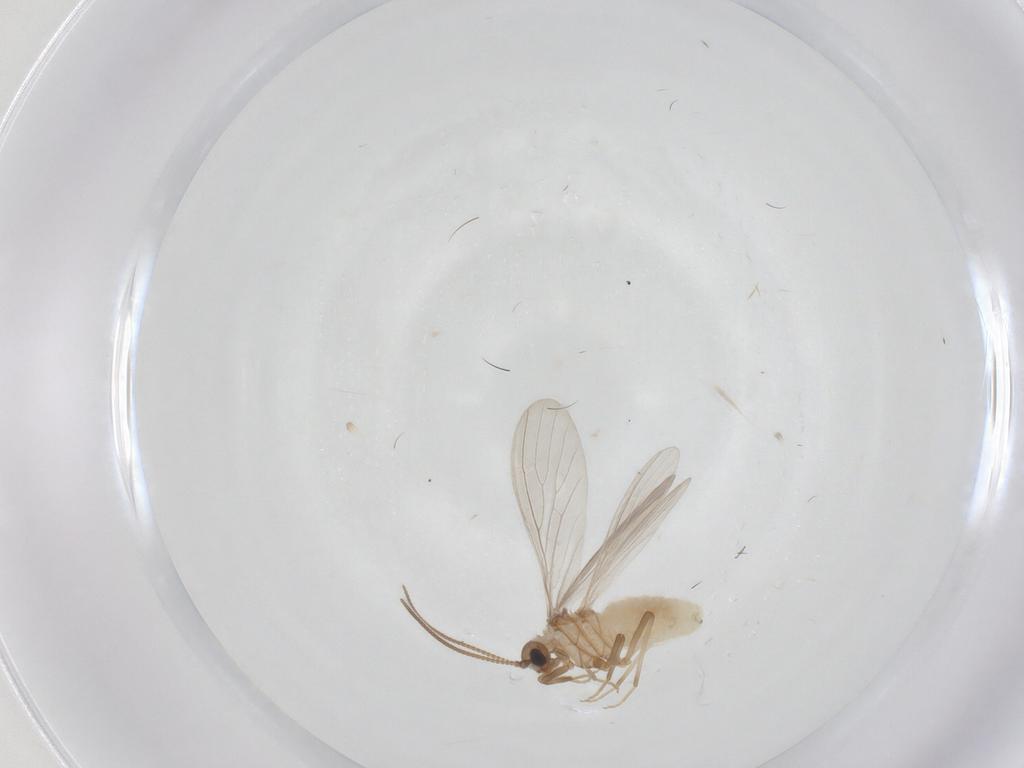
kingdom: Animalia
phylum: Arthropoda
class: Insecta
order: Neuroptera
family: Coniopterygidae
